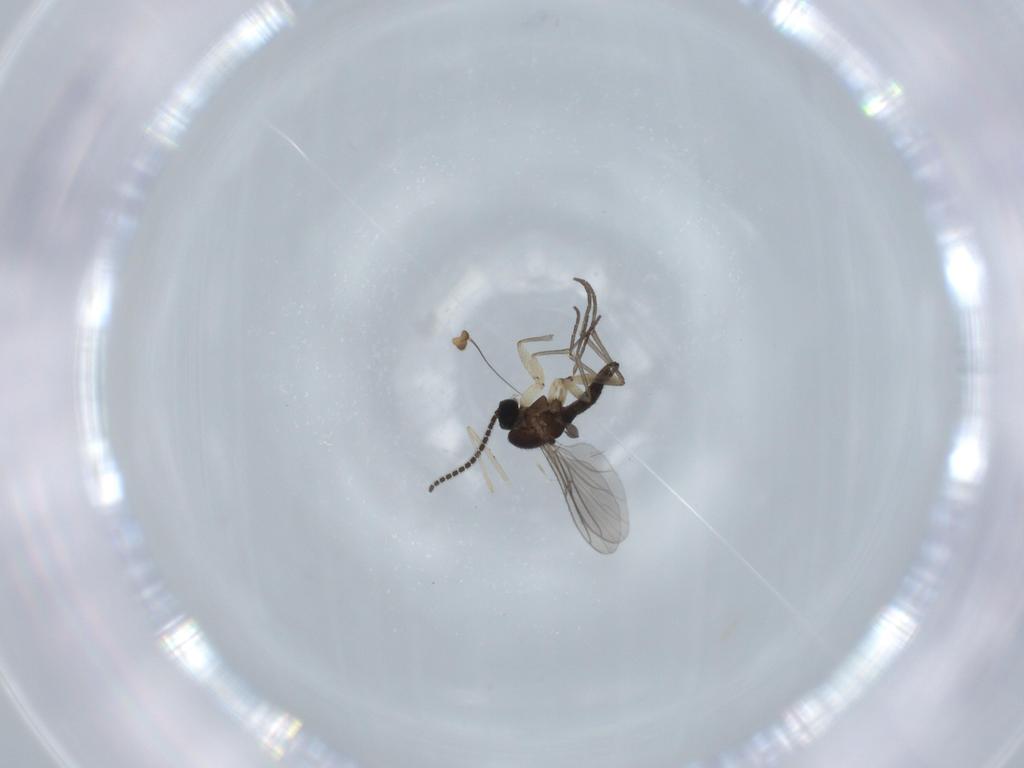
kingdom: Animalia
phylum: Arthropoda
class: Insecta
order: Diptera
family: Sciaridae
